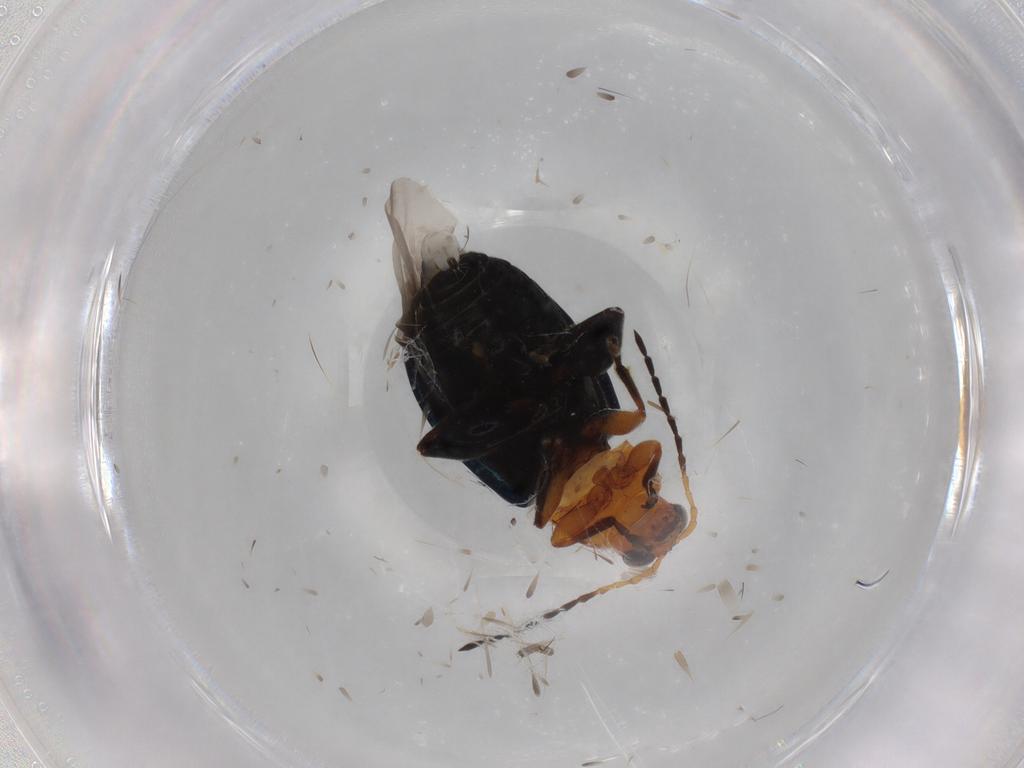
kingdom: Animalia
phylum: Arthropoda
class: Insecta
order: Coleoptera
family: Chrysomelidae
